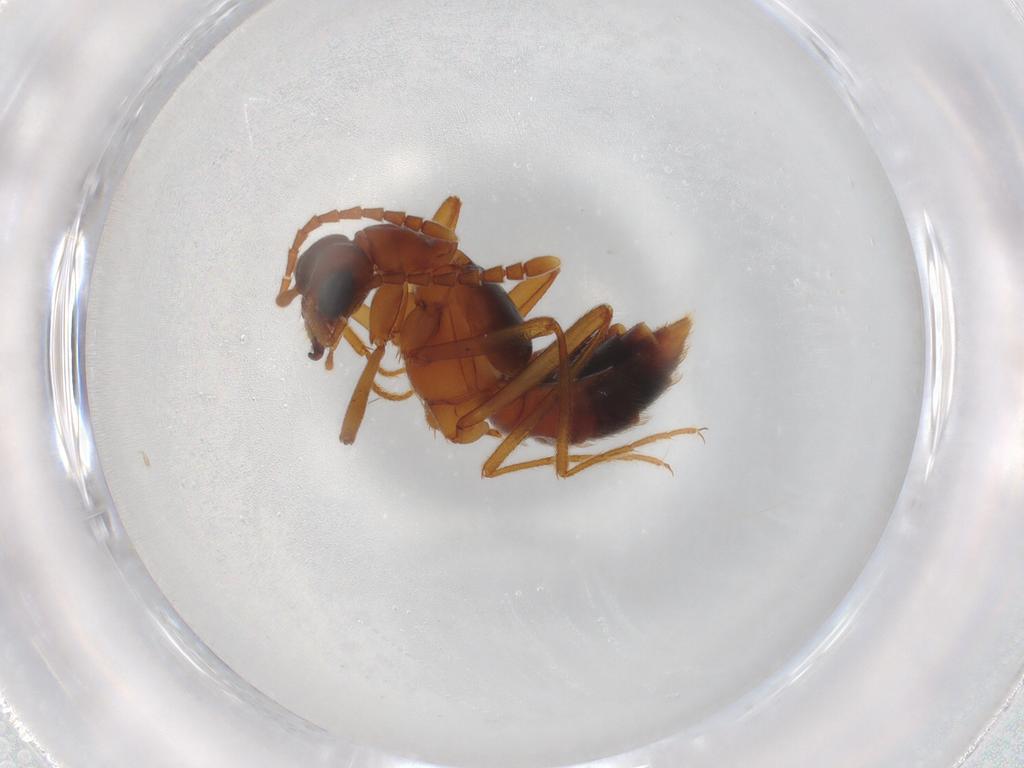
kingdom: Animalia
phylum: Arthropoda
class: Insecta
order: Coleoptera
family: Staphylinidae
